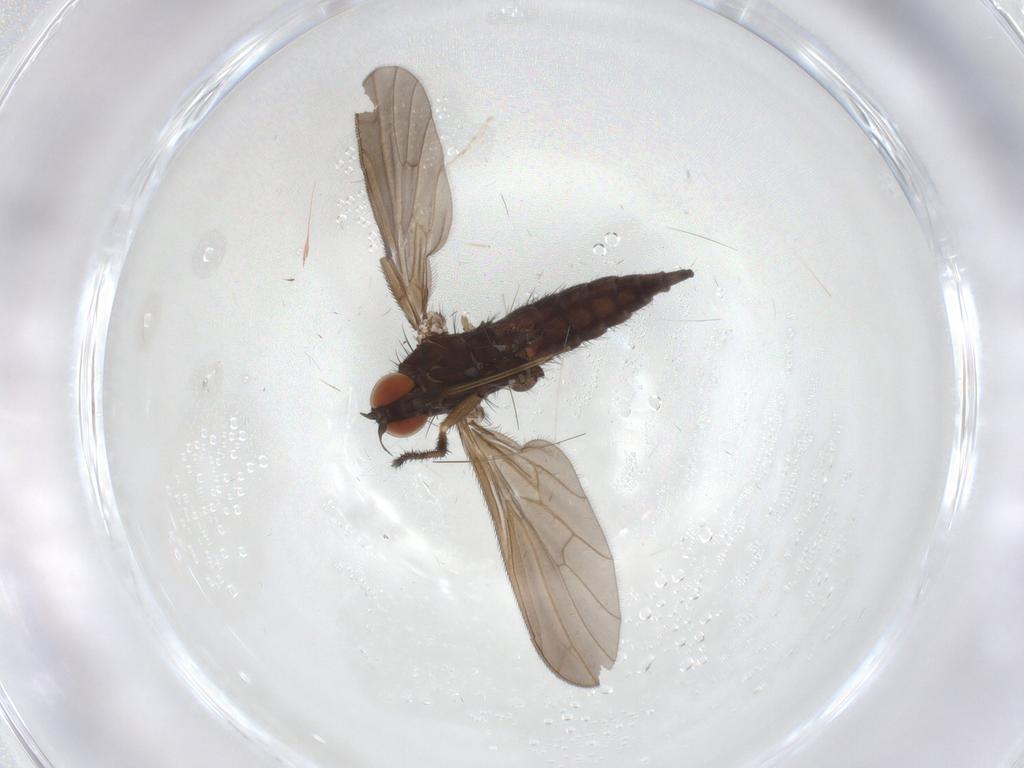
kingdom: Animalia
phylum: Arthropoda
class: Insecta
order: Diptera
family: Empididae
